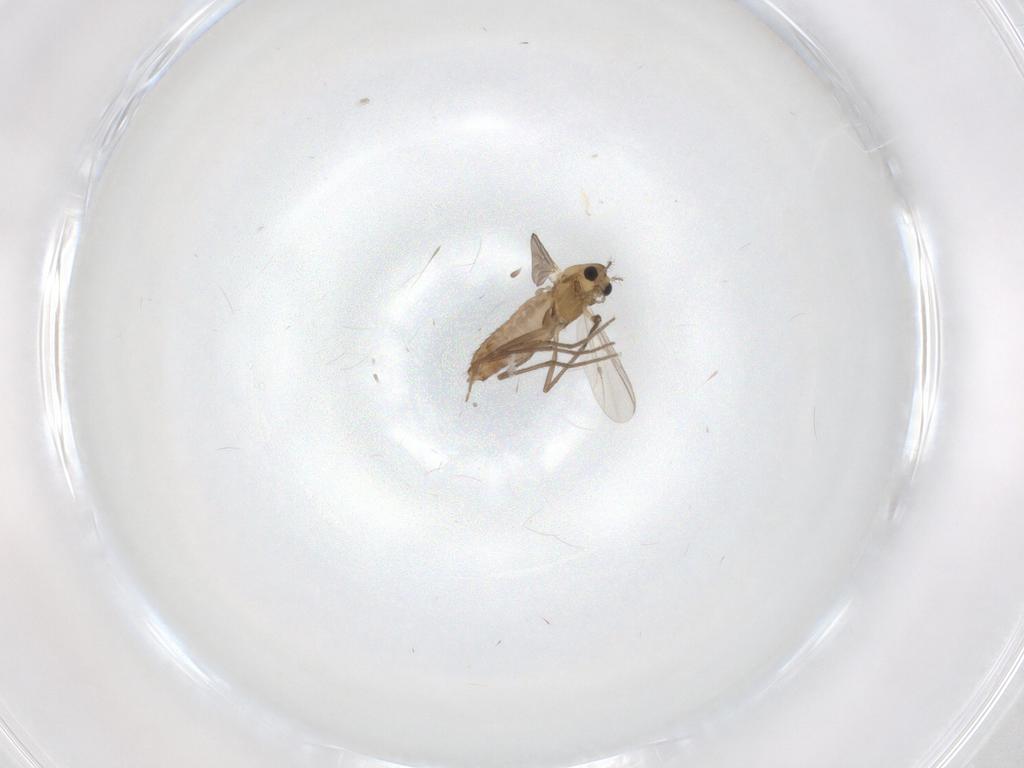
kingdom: Animalia
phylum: Arthropoda
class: Insecta
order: Diptera
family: Chironomidae
